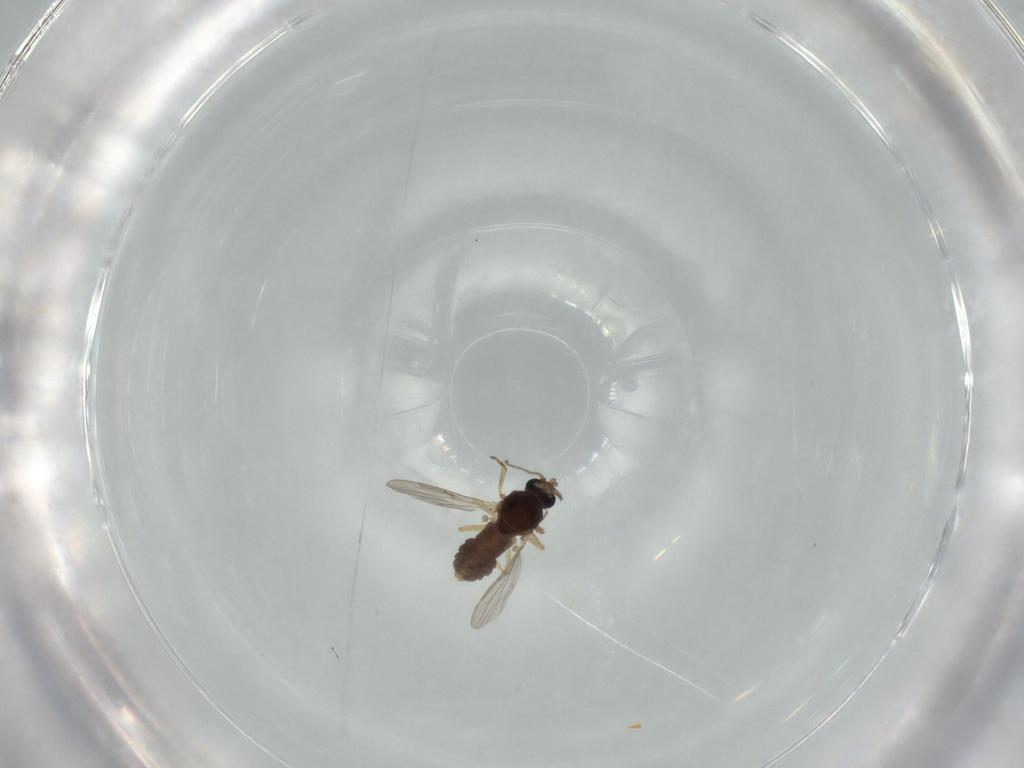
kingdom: Animalia
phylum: Arthropoda
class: Insecta
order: Diptera
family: Ceratopogonidae
